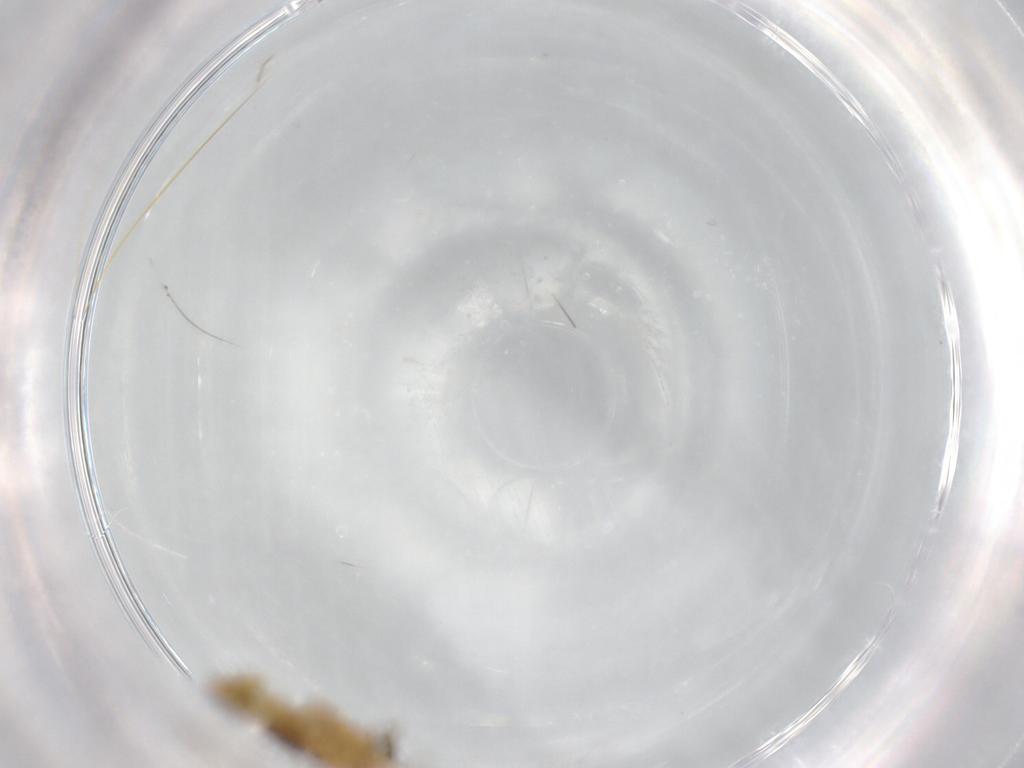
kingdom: Animalia
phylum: Arthropoda
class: Insecta
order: Diptera
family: Chironomidae
